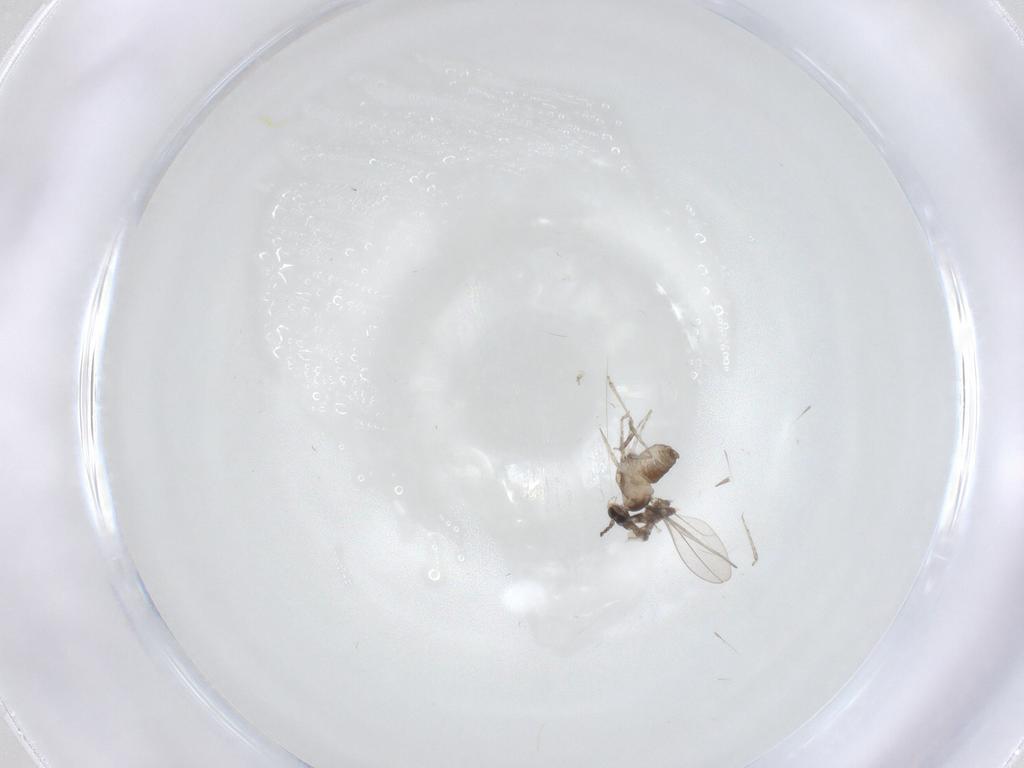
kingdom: Animalia
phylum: Arthropoda
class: Insecta
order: Diptera
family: Cecidomyiidae
